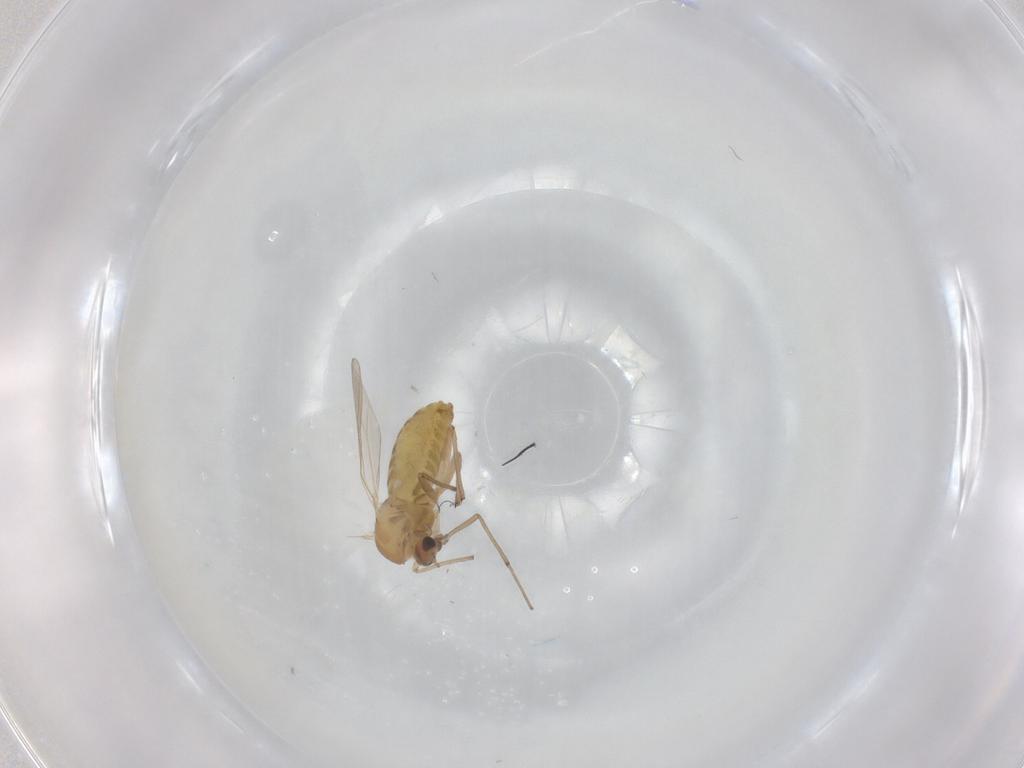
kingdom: Animalia
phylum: Arthropoda
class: Insecta
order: Diptera
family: Chironomidae
